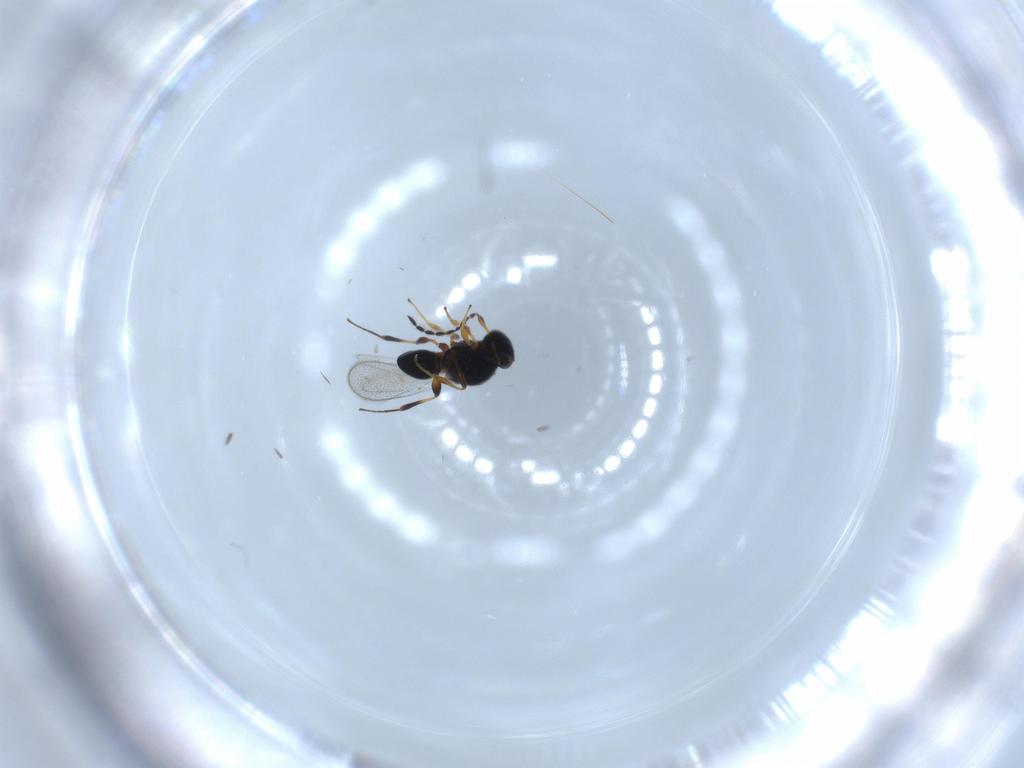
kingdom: Animalia
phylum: Arthropoda
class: Insecta
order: Hymenoptera
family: Platygastridae
